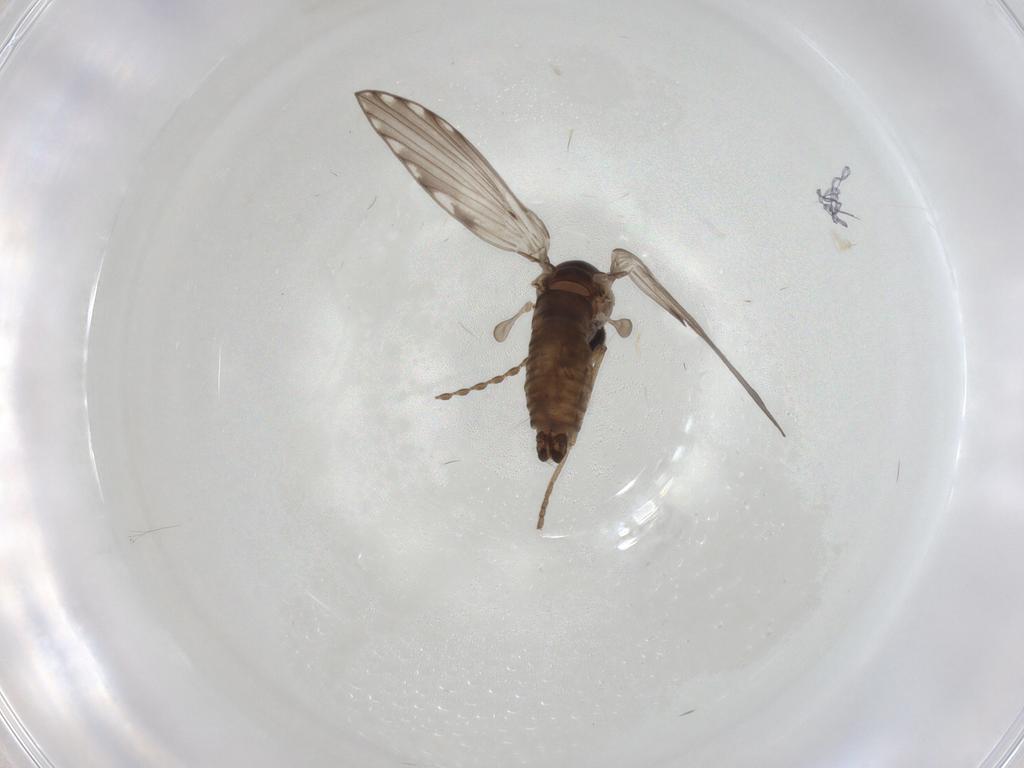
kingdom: Animalia
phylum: Arthropoda
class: Insecta
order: Diptera
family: Psychodidae
